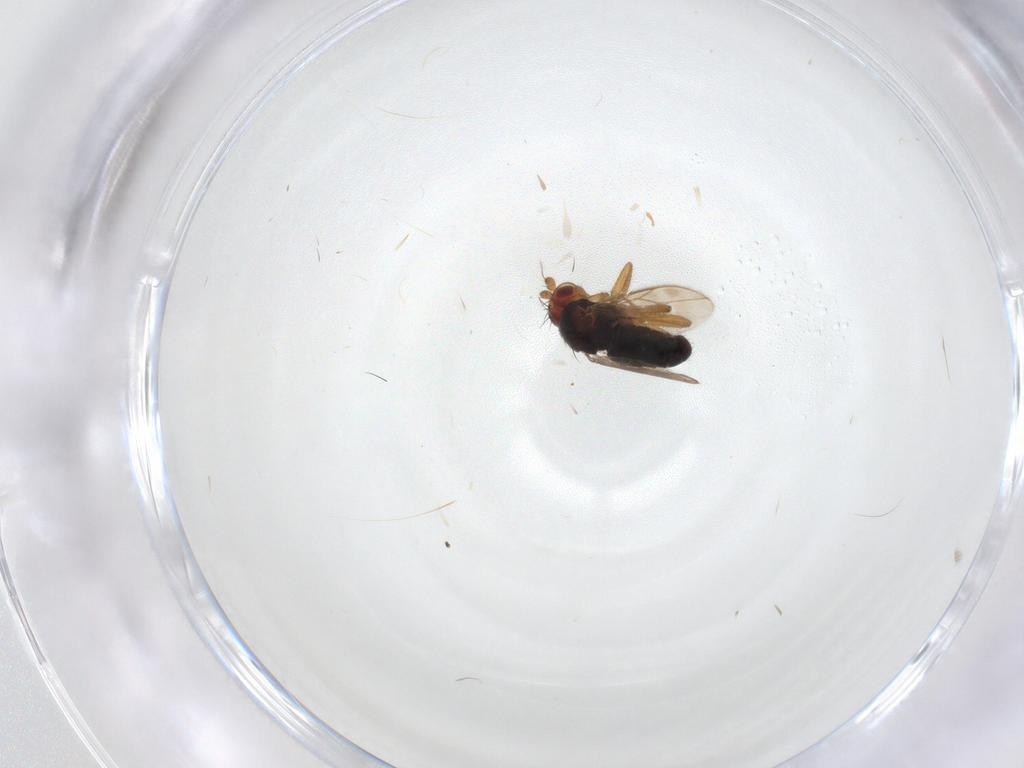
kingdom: Animalia
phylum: Arthropoda
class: Insecta
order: Diptera
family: Sphaeroceridae
